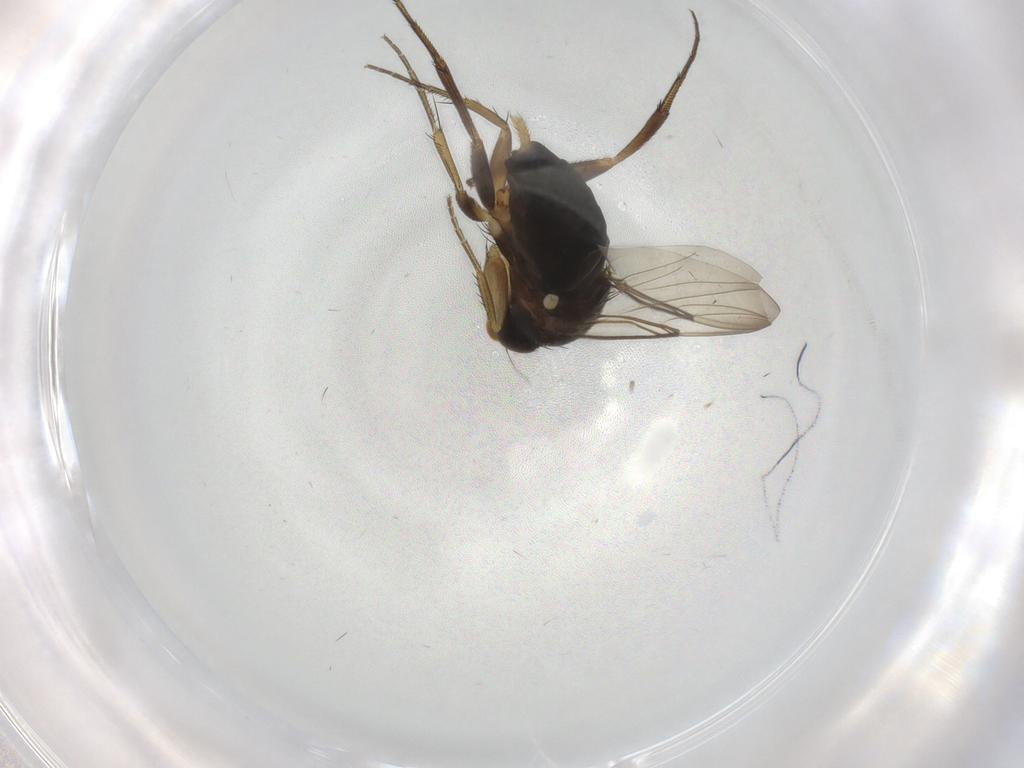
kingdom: Animalia
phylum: Arthropoda
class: Insecta
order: Diptera
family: Phoridae
